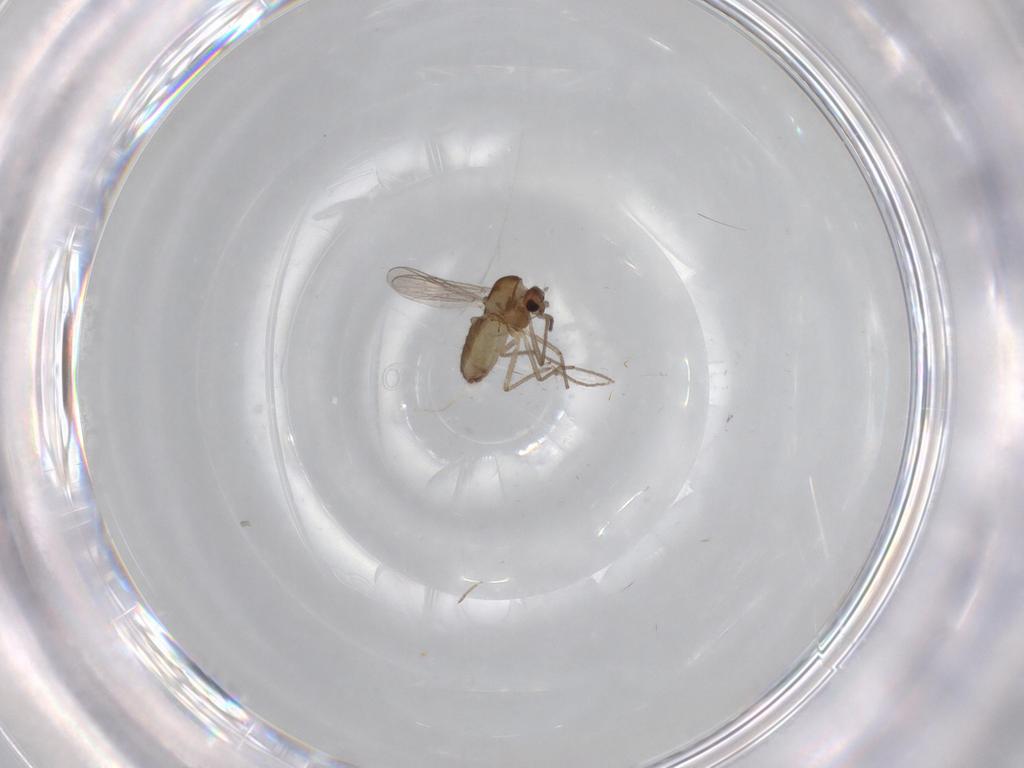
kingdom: Animalia
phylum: Arthropoda
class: Insecta
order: Diptera
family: Chironomidae
